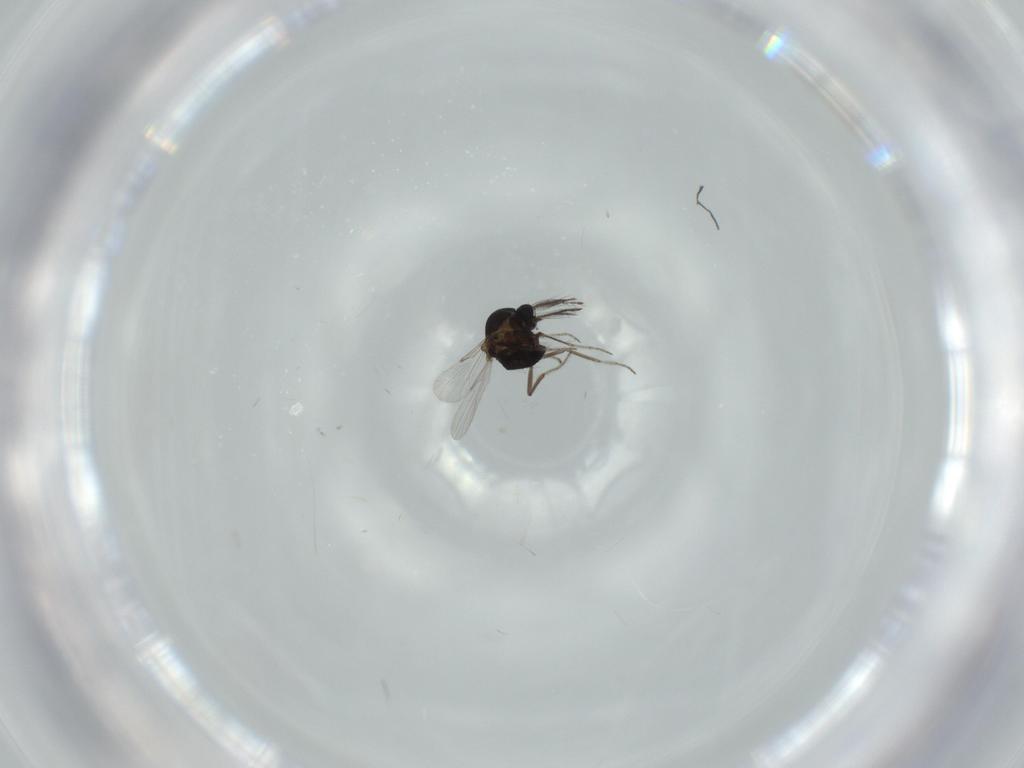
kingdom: Animalia
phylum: Arthropoda
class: Insecta
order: Diptera
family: Ceratopogonidae
